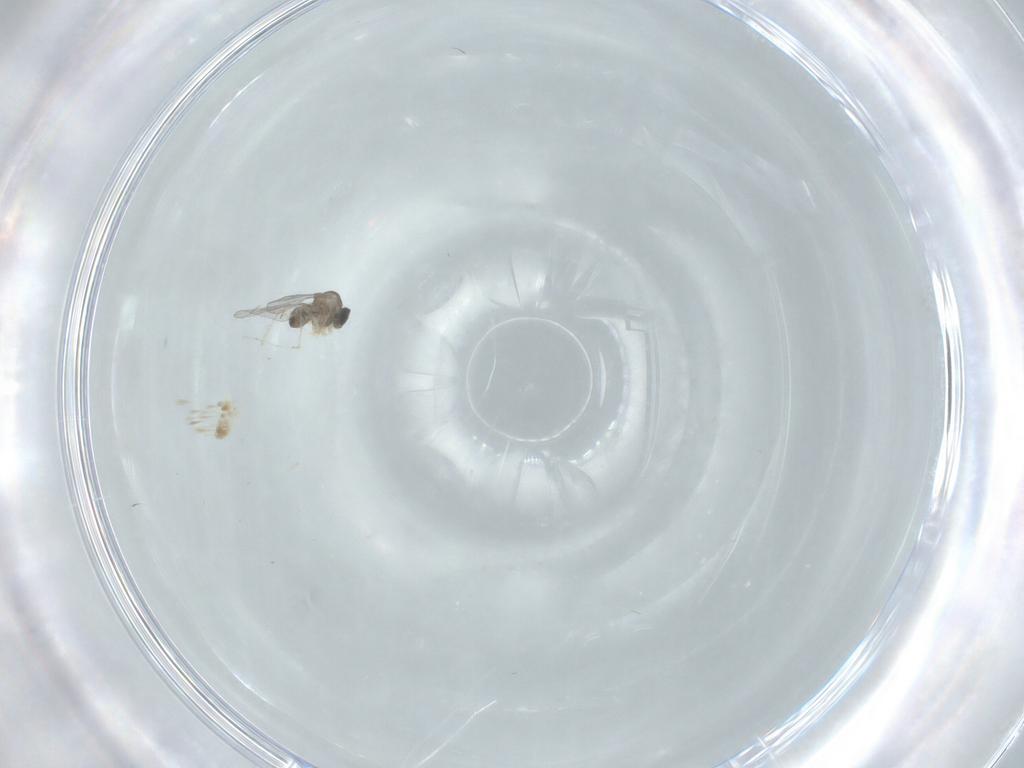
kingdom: Animalia
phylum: Arthropoda
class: Insecta
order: Diptera
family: Cecidomyiidae
